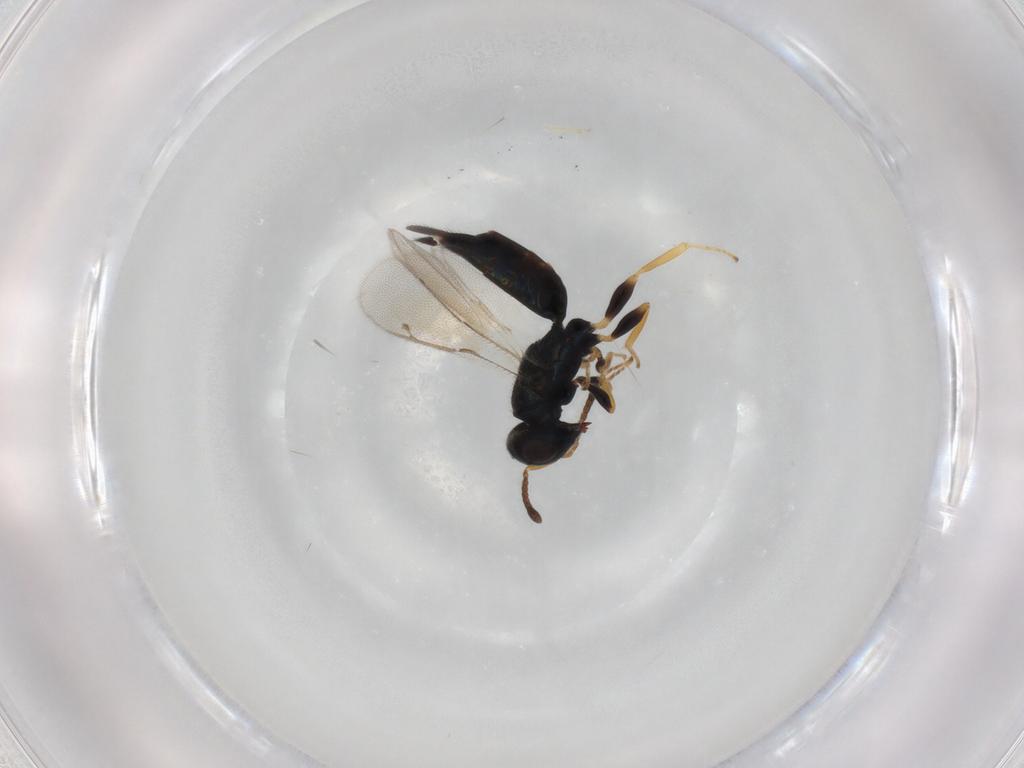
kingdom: Animalia
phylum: Arthropoda
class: Insecta
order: Hymenoptera
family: Eulophidae
